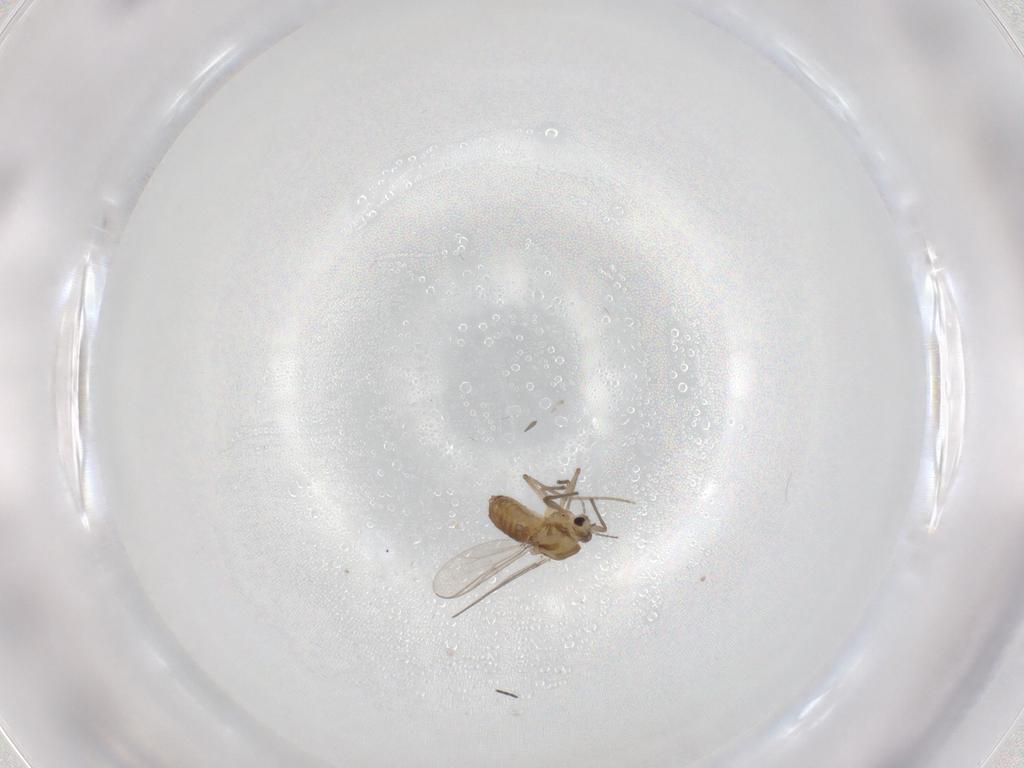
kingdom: Animalia
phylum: Arthropoda
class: Insecta
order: Diptera
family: Chironomidae
